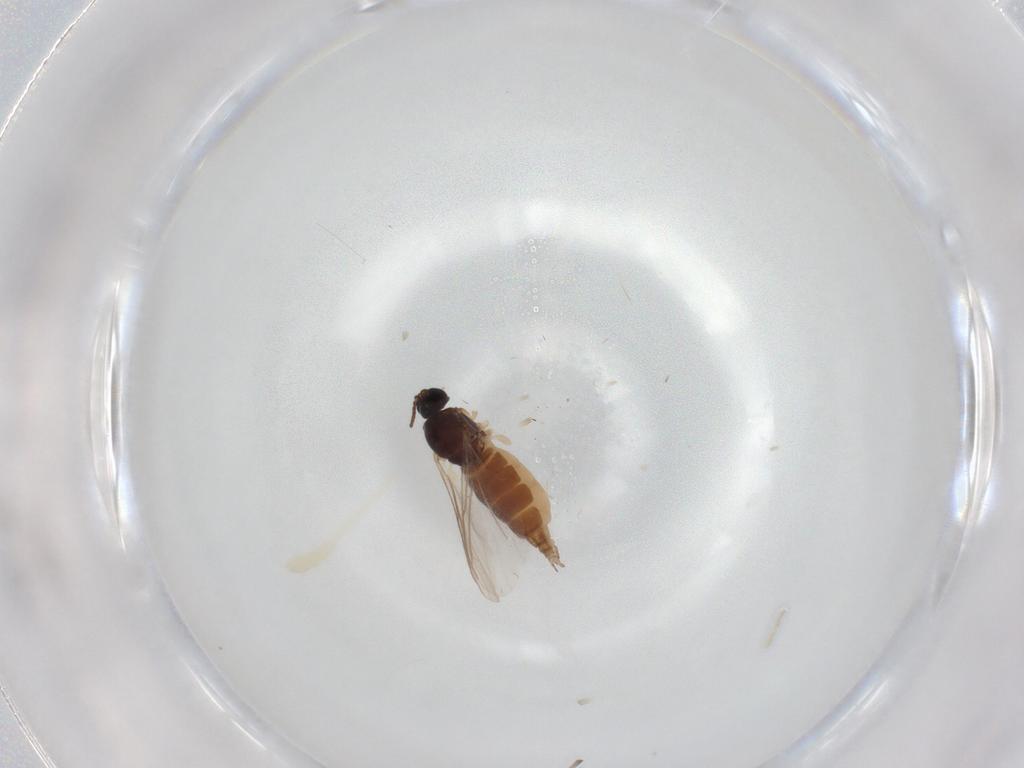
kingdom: Animalia
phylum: Arthropoda
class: Insecta
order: Diptera
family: Sciaridae
